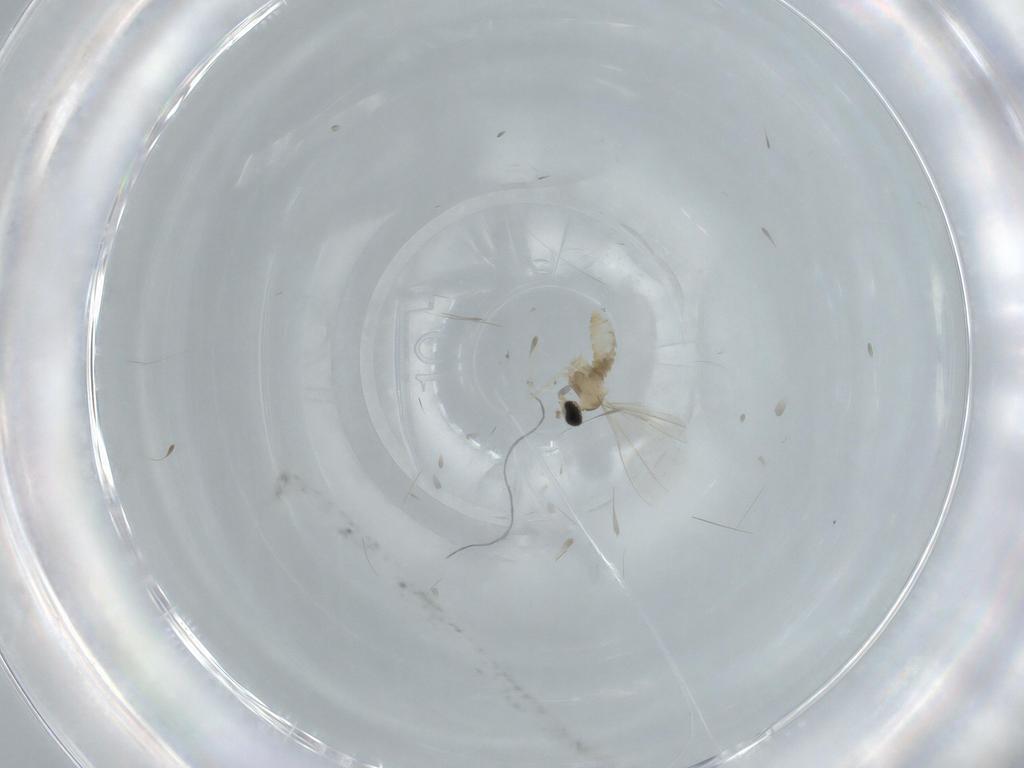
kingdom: Animalia
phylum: Arthropoda
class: Insecta
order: Diptera
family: Cecidomyiidae
